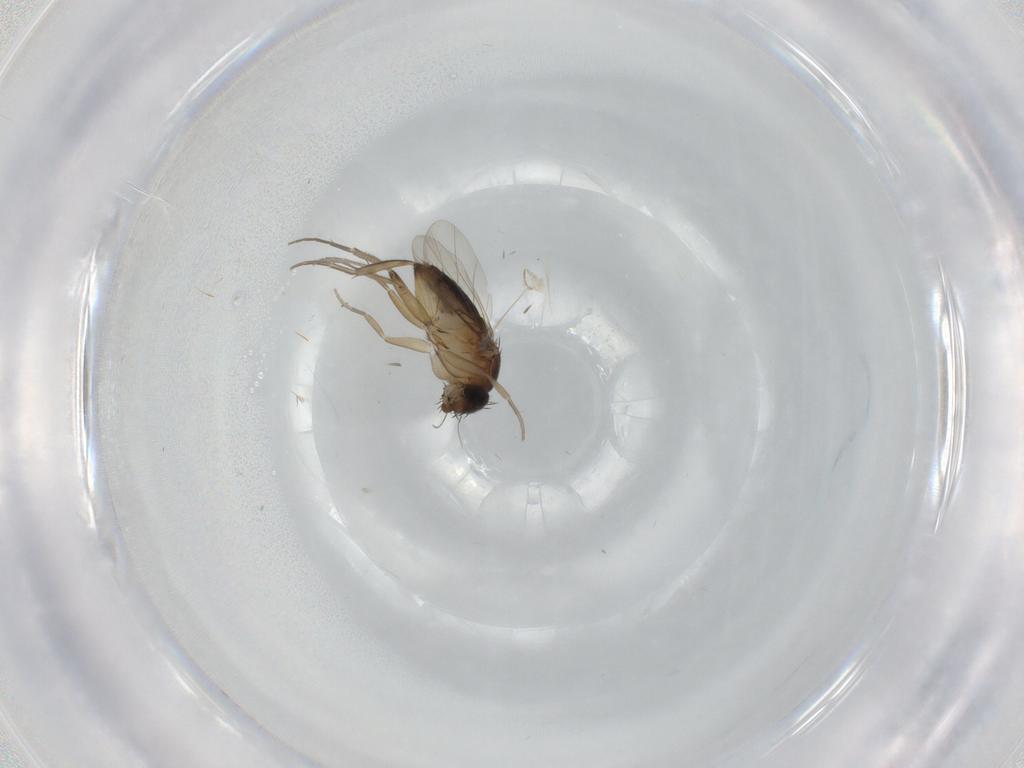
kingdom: Animalia
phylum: Arthropoda
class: Insecta
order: Diptera
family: Phoridae
